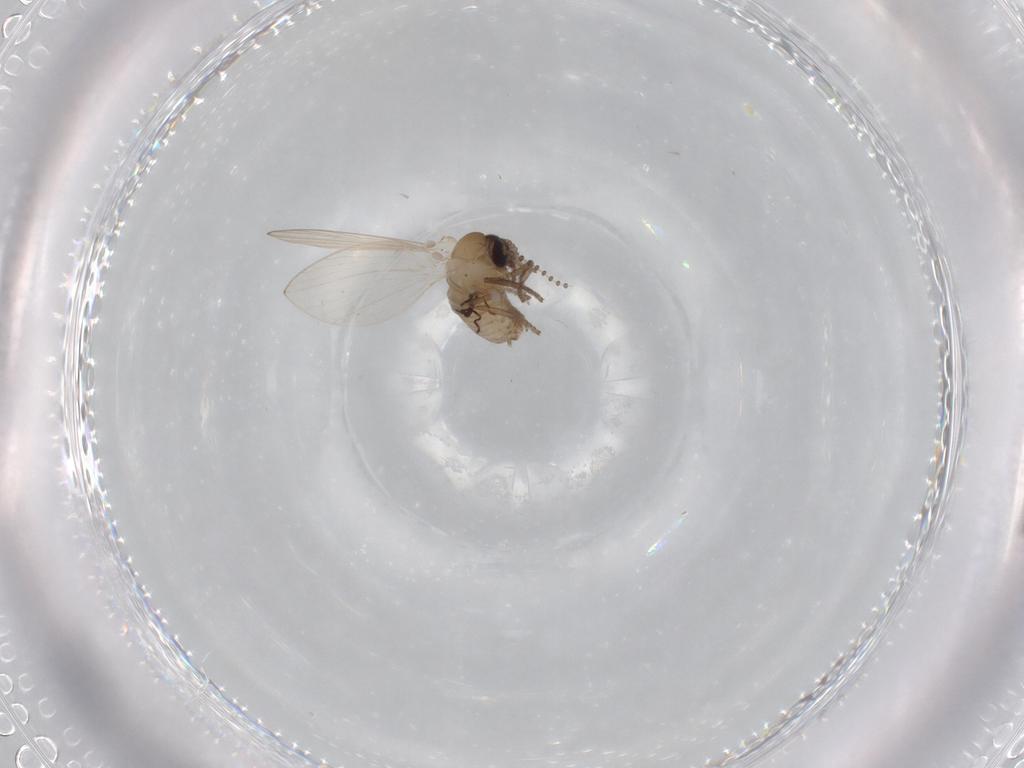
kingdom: Animalia
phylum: Arthropoda
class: Insecta
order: Diptera
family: Psychodidae
